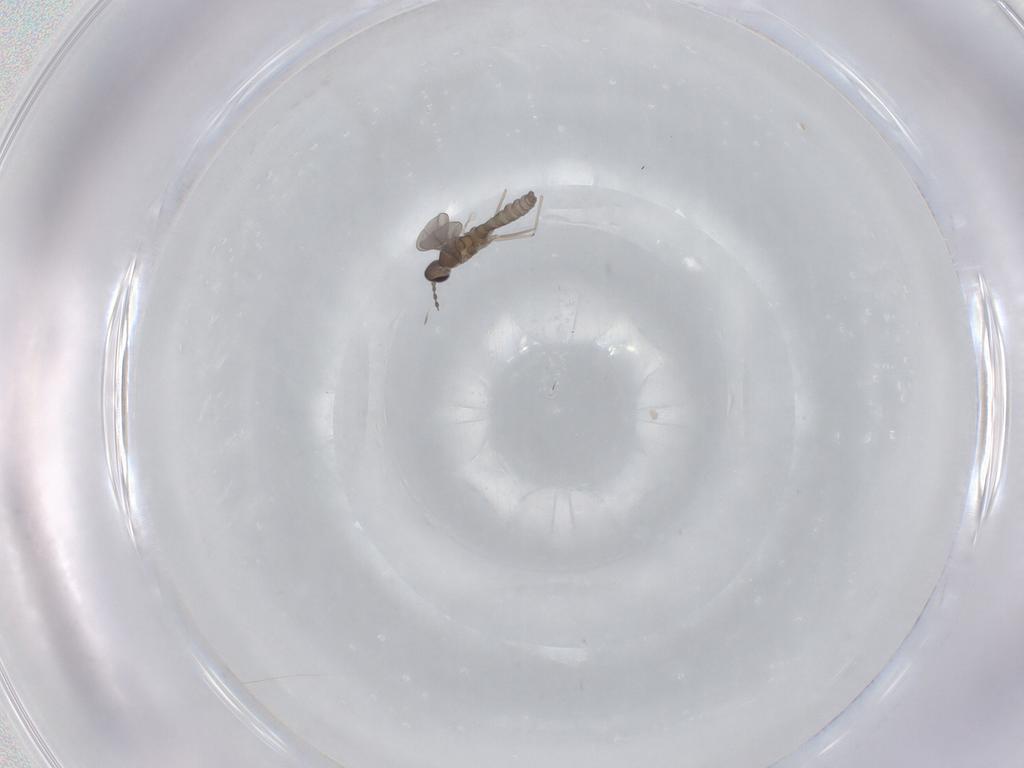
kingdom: Animalia
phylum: Arthropoda
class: Insecta
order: Diptera
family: Cecidomyiidae
